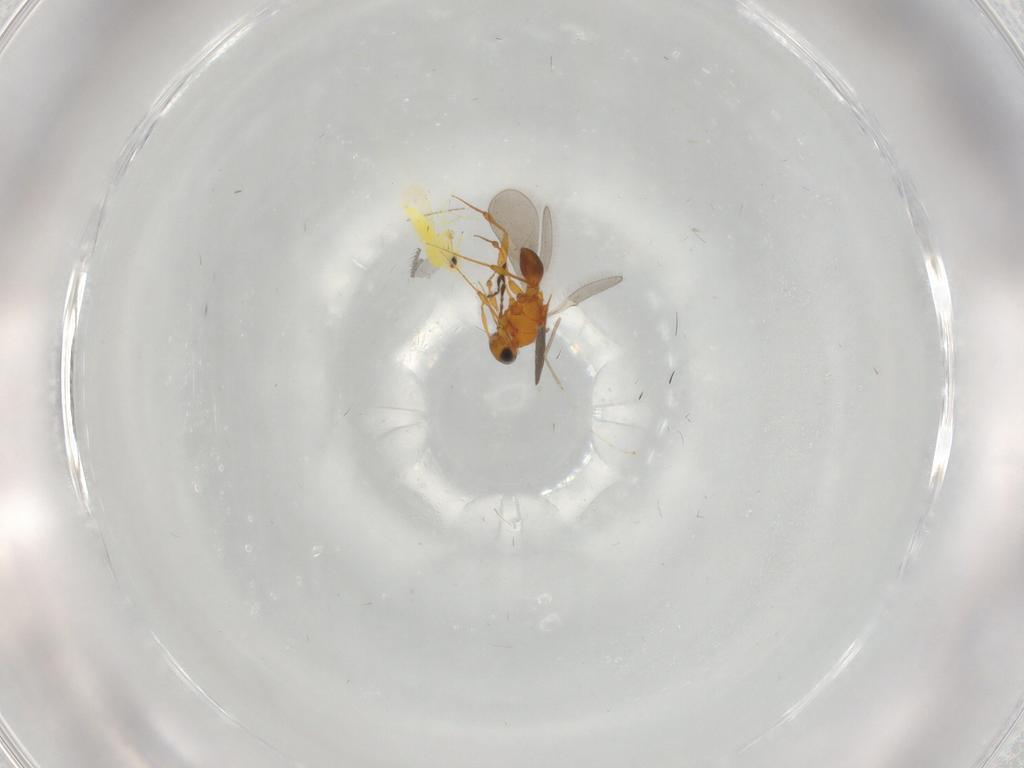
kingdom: Animalia
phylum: Arthropoda
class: Insecta
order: Hemiptera
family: Aleyrodidae
